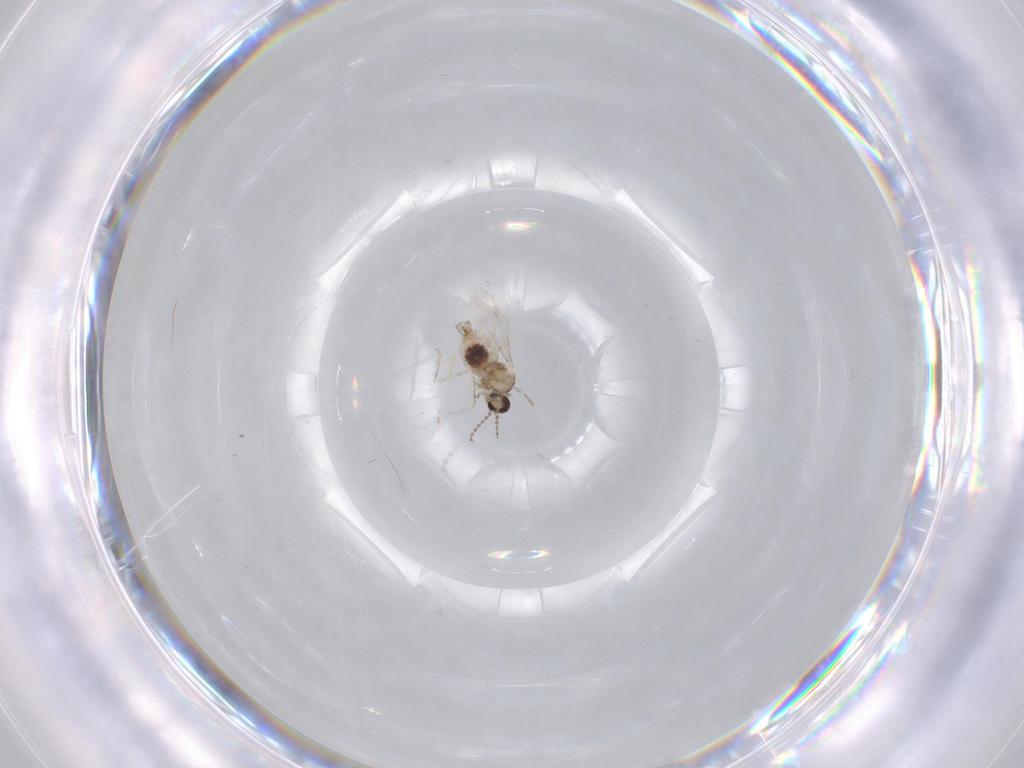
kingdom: Animalia
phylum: Arthropoda
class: Insecta
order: Diptera
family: Cecidomyiidae
